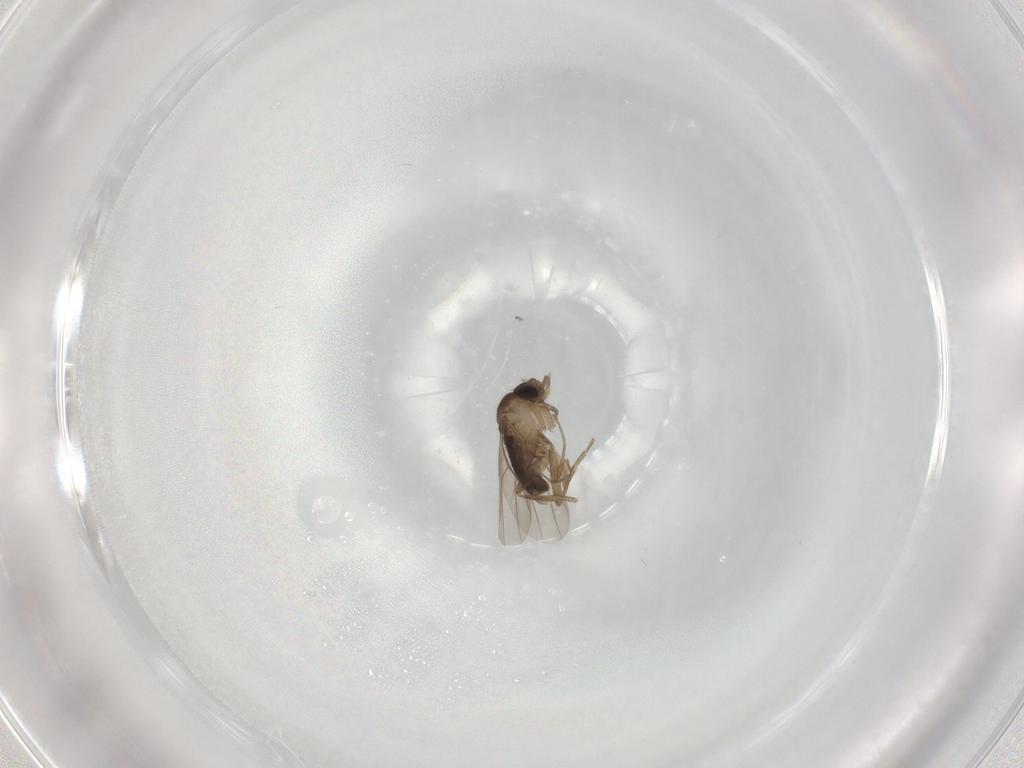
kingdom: Animalia
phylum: Arthropoda
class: Insecta
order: Diptera
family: Phoridae
